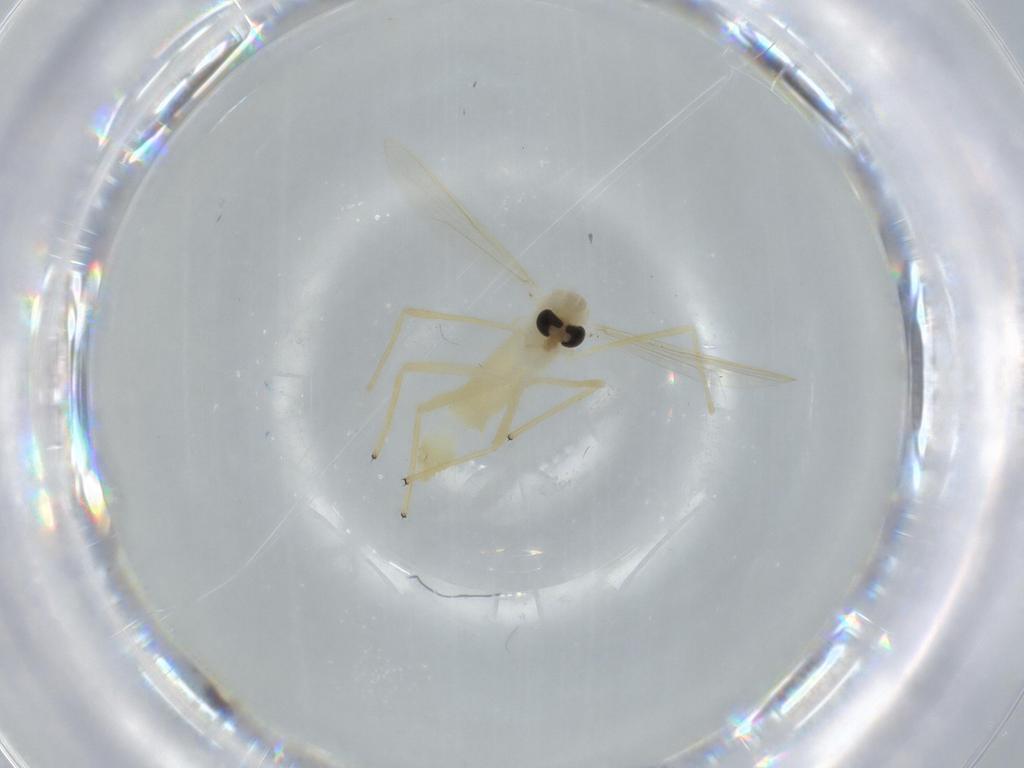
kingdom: Animalia
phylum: Arthropoda
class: Insecta
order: Diptera
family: Chironomidae
